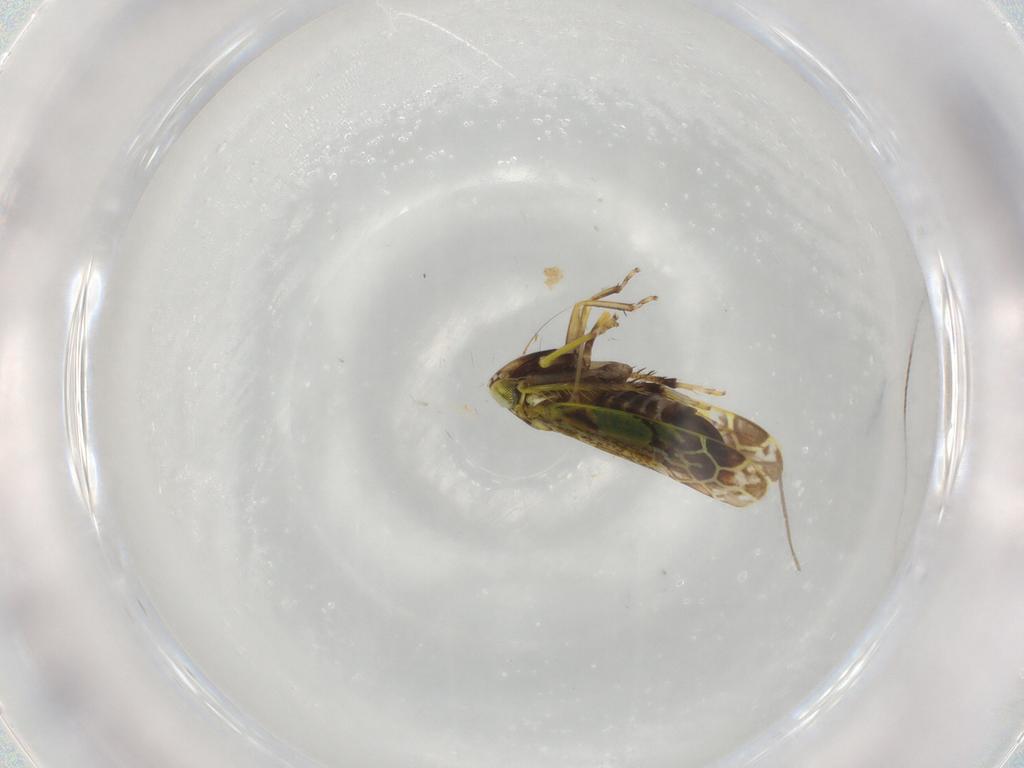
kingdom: Animalia
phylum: Arthropoda
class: Insecta
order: Hemiptera
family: Cicadellidae
